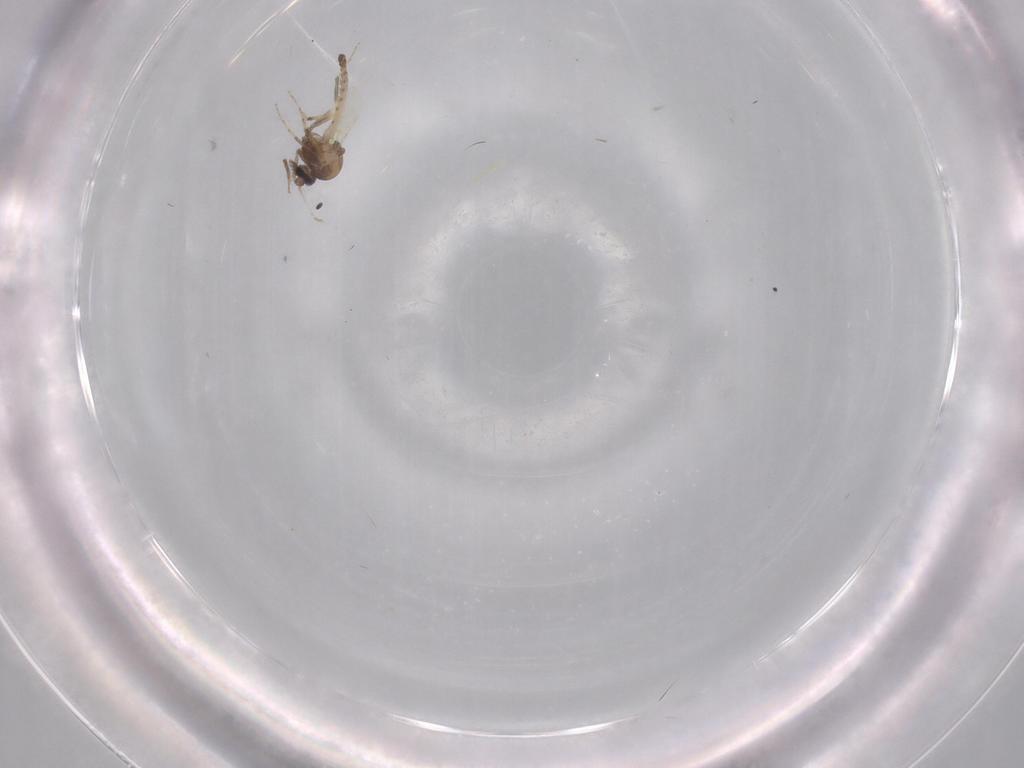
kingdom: Animalia
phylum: Arthropoda
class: Insecta
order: Diptera
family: Ceratopogonidae
